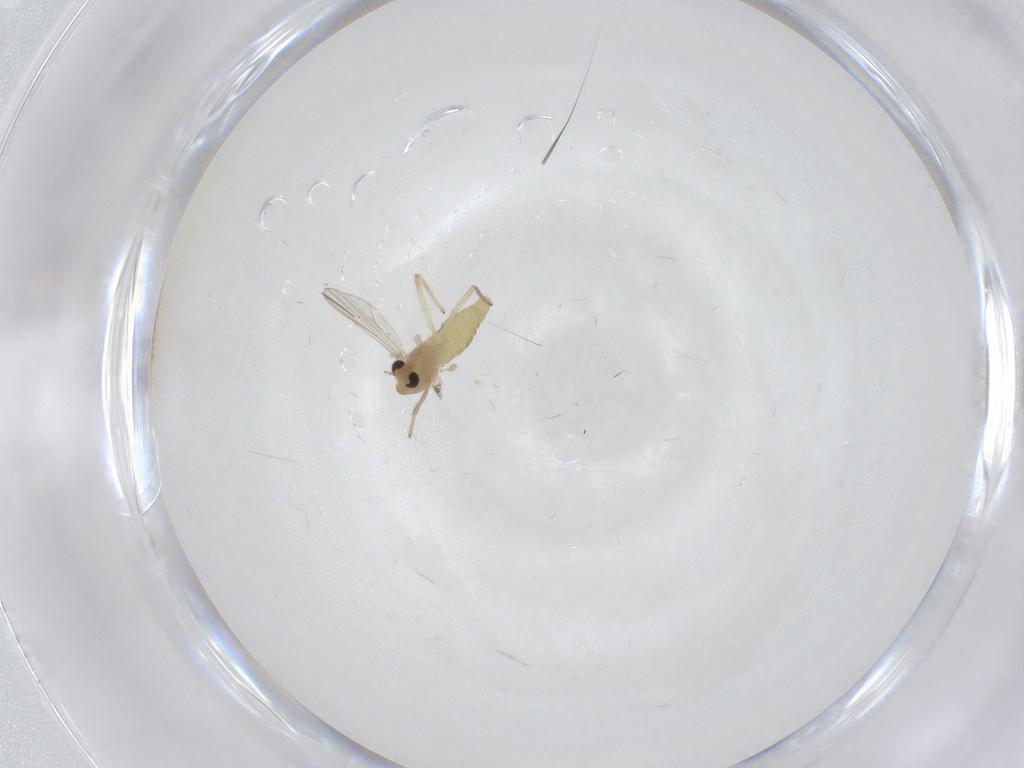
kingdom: Animalia
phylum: Arthropoda
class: Insecta
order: Diptera
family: Chironomidae
